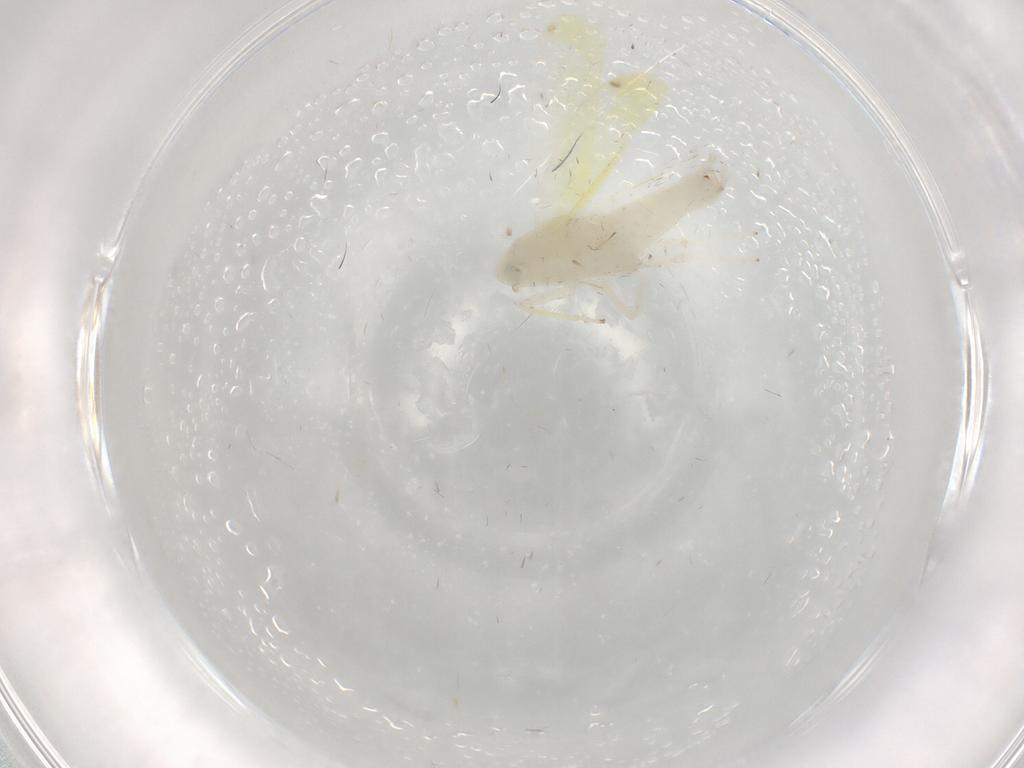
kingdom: Animalia
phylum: Arthropoda
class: Insecta
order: Hemiptera
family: Cicadellidae
